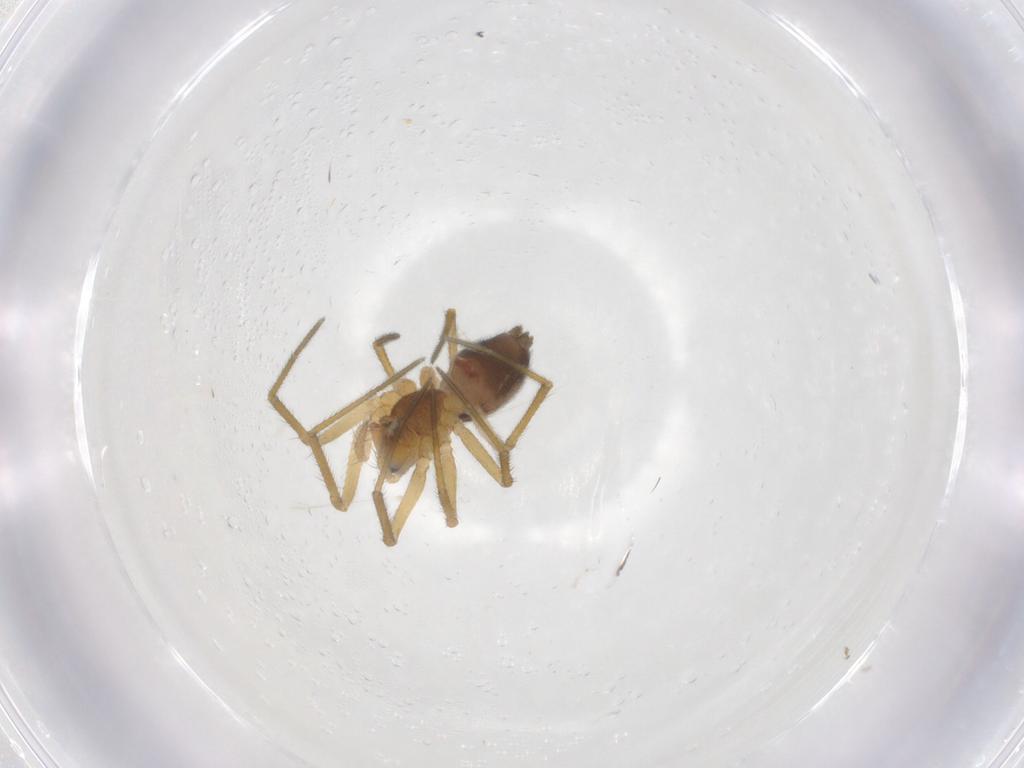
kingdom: Animalia
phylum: Arthropoda
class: Arachnida
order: Araneae
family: Linyphiidae
